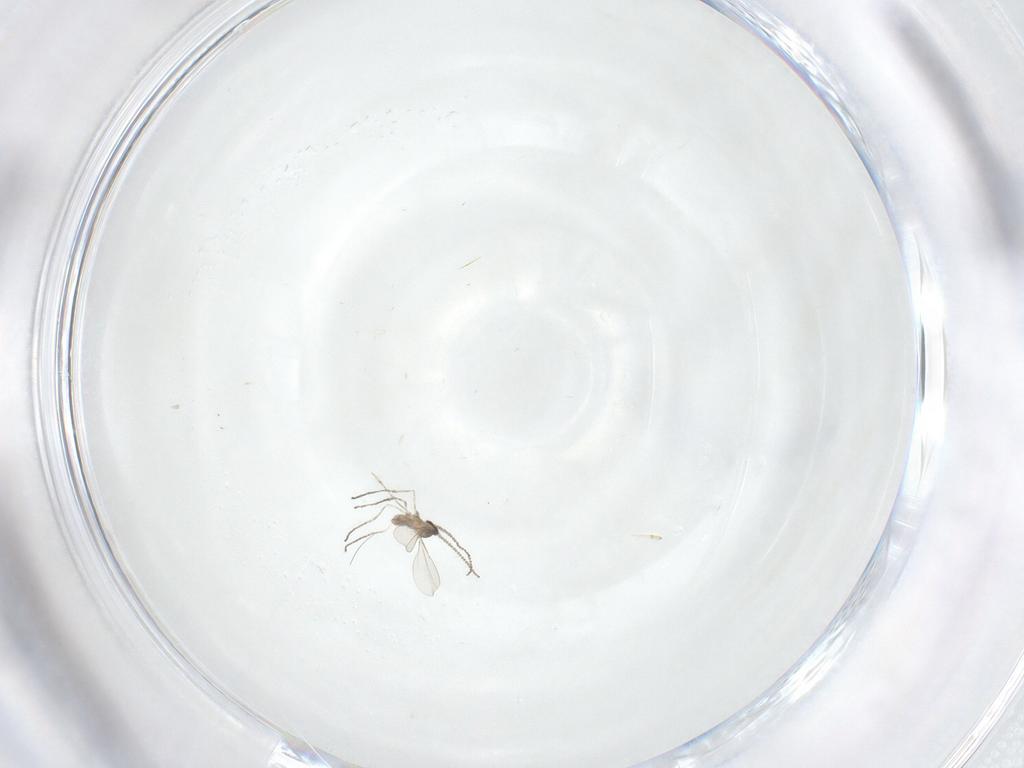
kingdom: Animalia
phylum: Arthropoda
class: Insecta
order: Diptera
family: Cecidomyiidae
